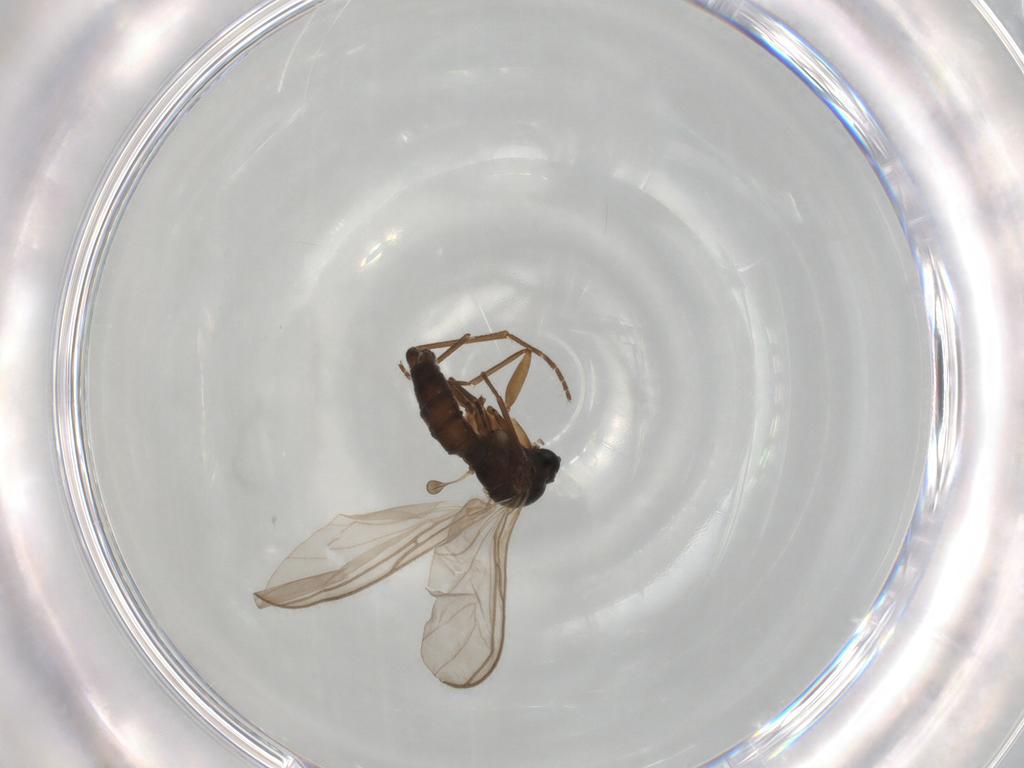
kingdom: Animalia
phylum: Arthropoda
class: Insecta
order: Diptera
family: Sciaridae
